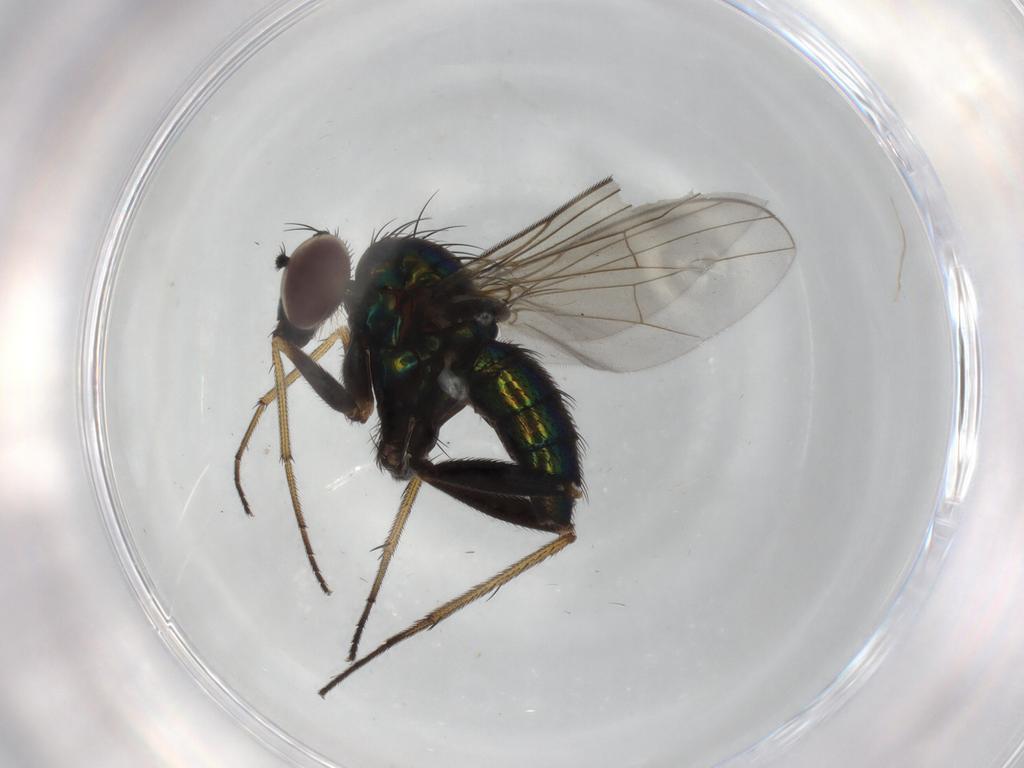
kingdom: Animalia
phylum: Arthropoda
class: Insecta
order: Diptera
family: Dolichopodidae
